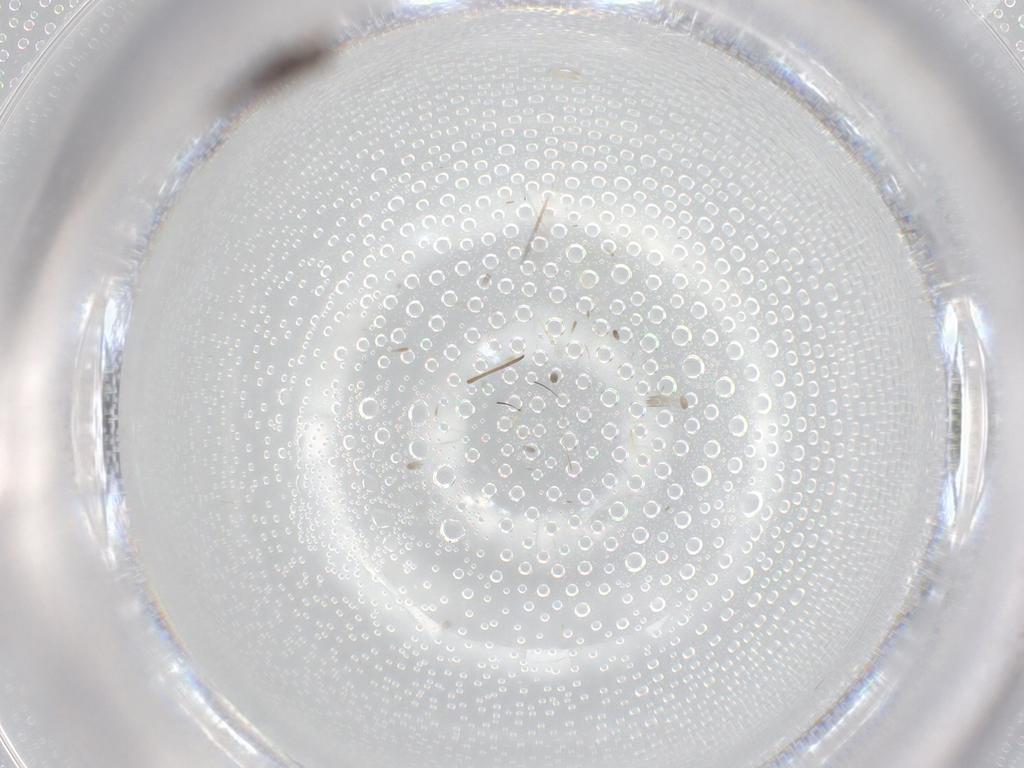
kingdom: Animalia
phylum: Arthropoda
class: Insecta
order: Diptera
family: Cecidomyiidae
